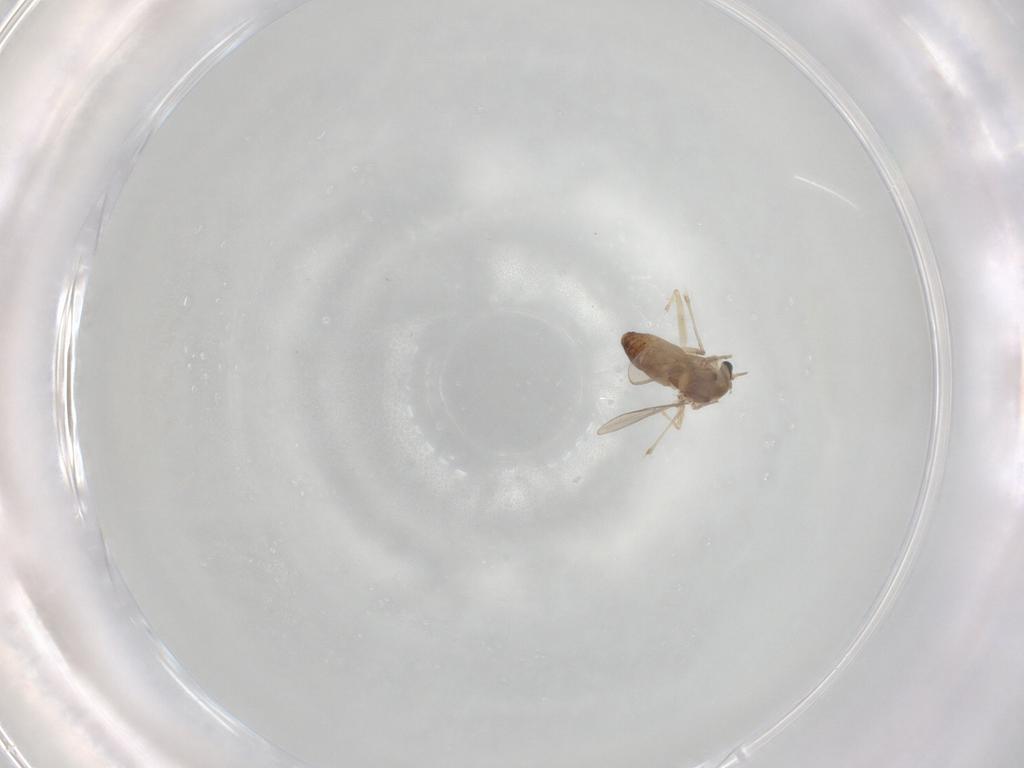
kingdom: Animalia
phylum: Arthropoda
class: Insecta
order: Diptera
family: Chironomidae
